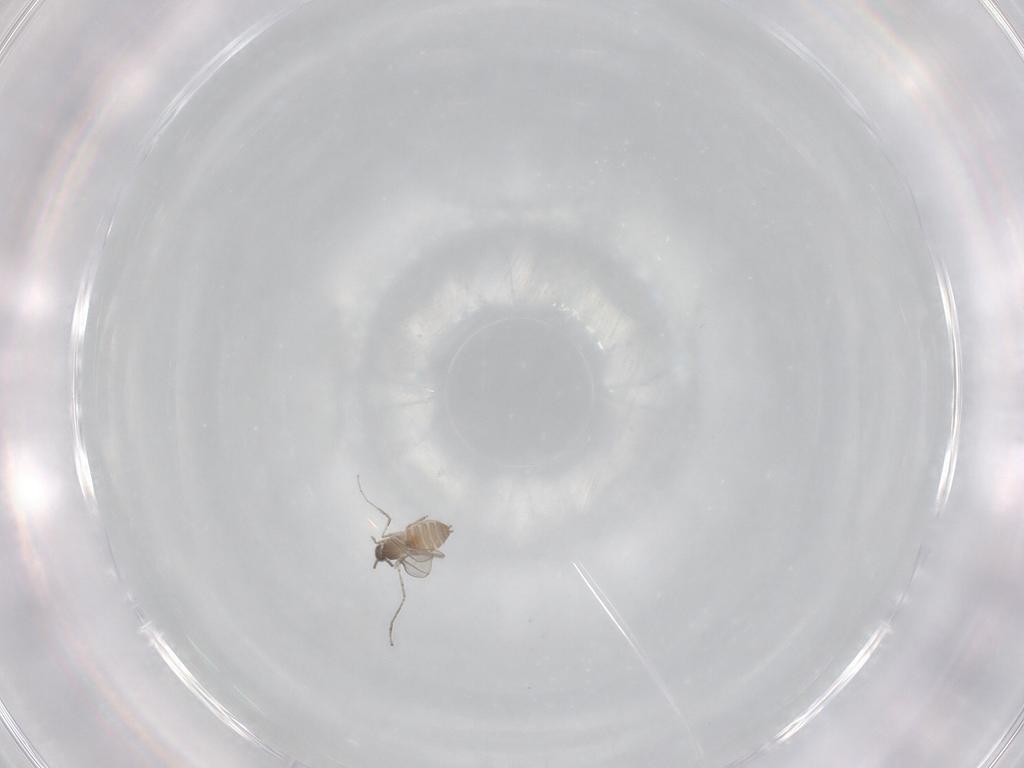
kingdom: Animalia
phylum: Arthropoda
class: Insecta
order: Diptera
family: Cecidomyiidae
